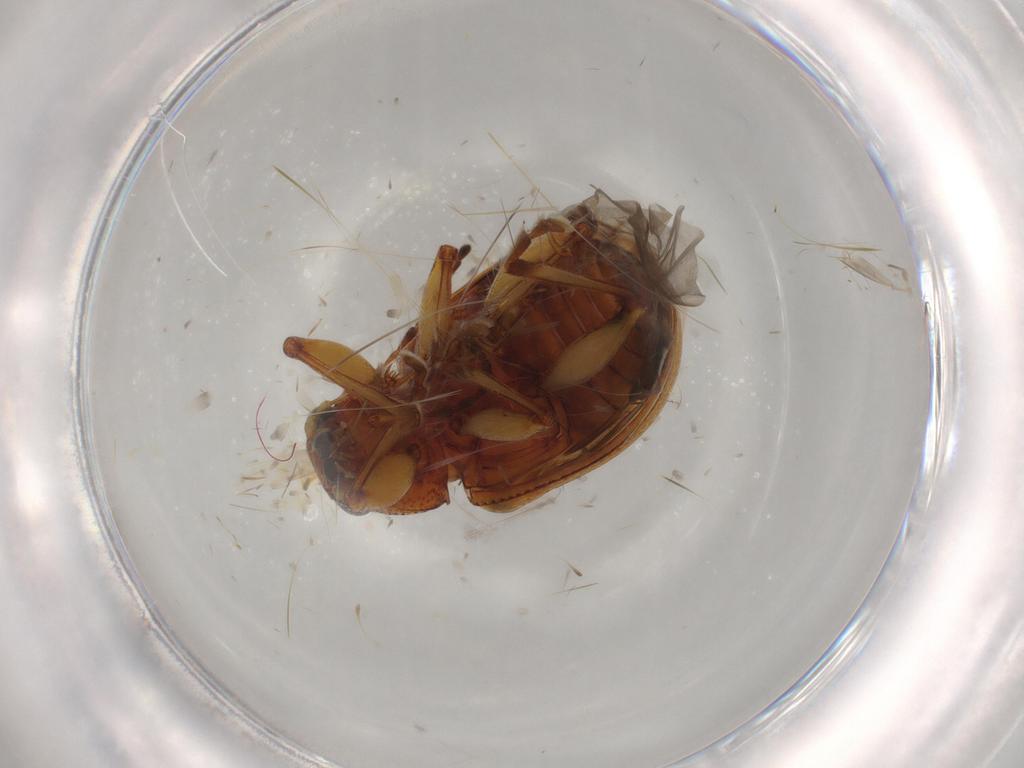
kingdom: Animalia
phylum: Arthropoda
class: Insecta
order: Coleoptera
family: Chrysomelidae
